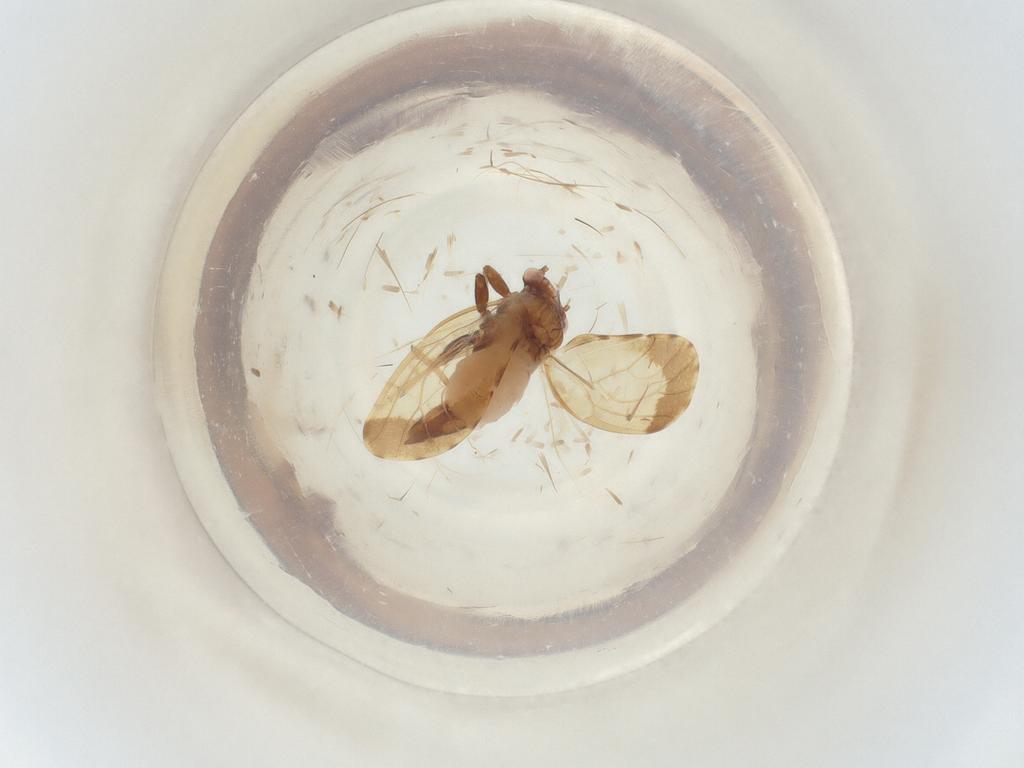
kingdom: Animalia
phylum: Arthropoda
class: Insecta
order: Hemiptera
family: Psyllidae
